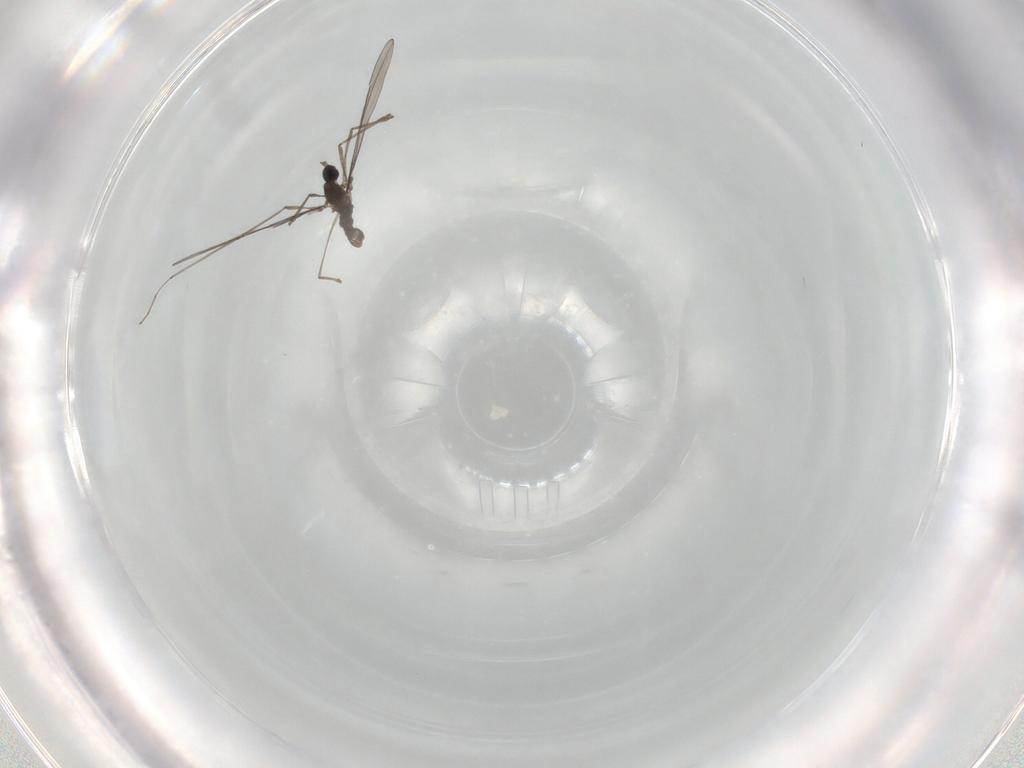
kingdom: Animalia
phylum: Arthropoda
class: Insecta
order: Diptera
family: Cecidomyiidae
